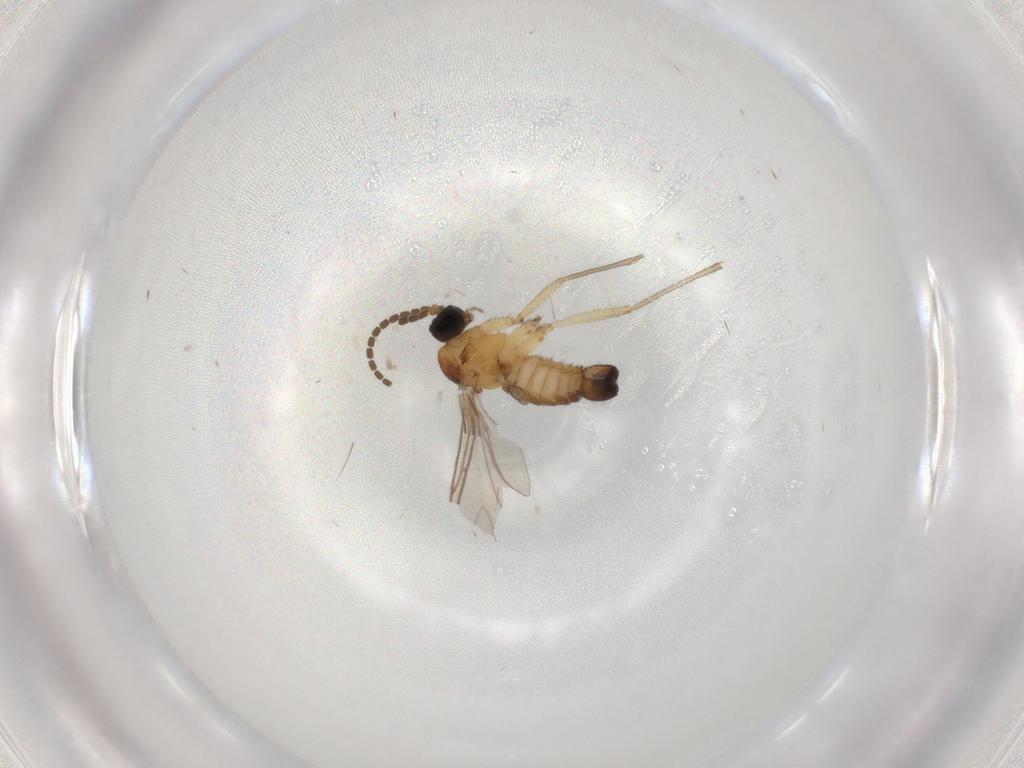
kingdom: Animalia
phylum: Arthropoda
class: Insecta
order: Diptera
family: Sciaridae
